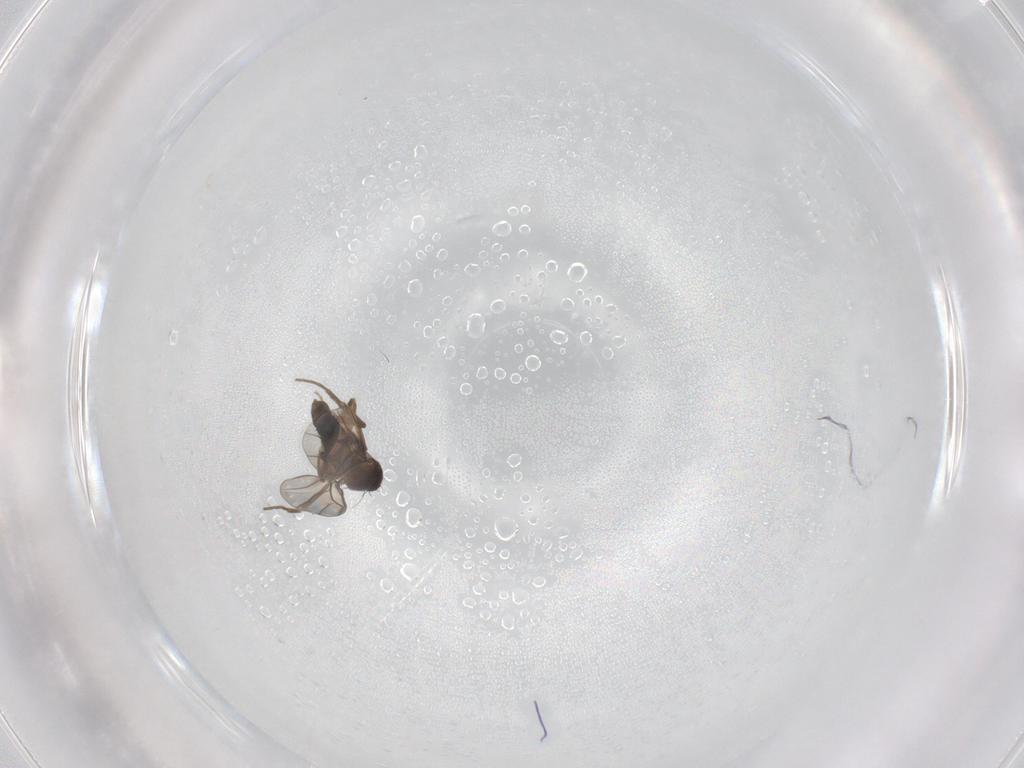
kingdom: Animalia
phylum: Arthropoda
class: Insecta
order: Diptera
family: Phoridae
